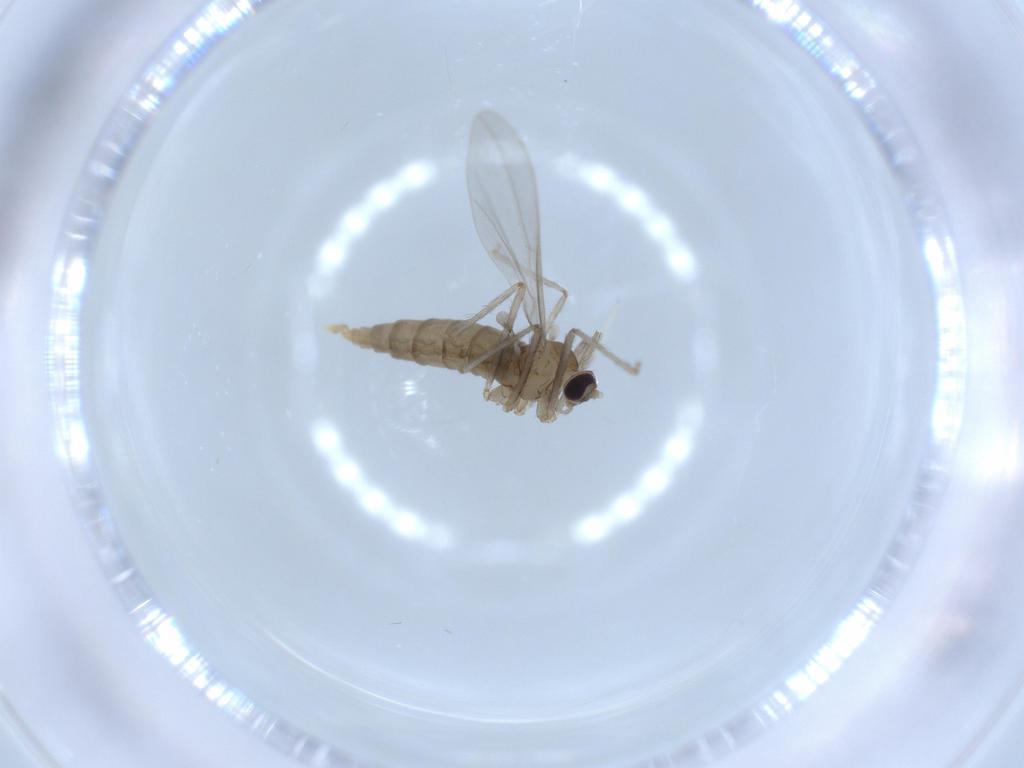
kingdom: Animalia
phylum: Arthropoda
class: Insecta
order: Diptera
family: Cecidomyiidae
